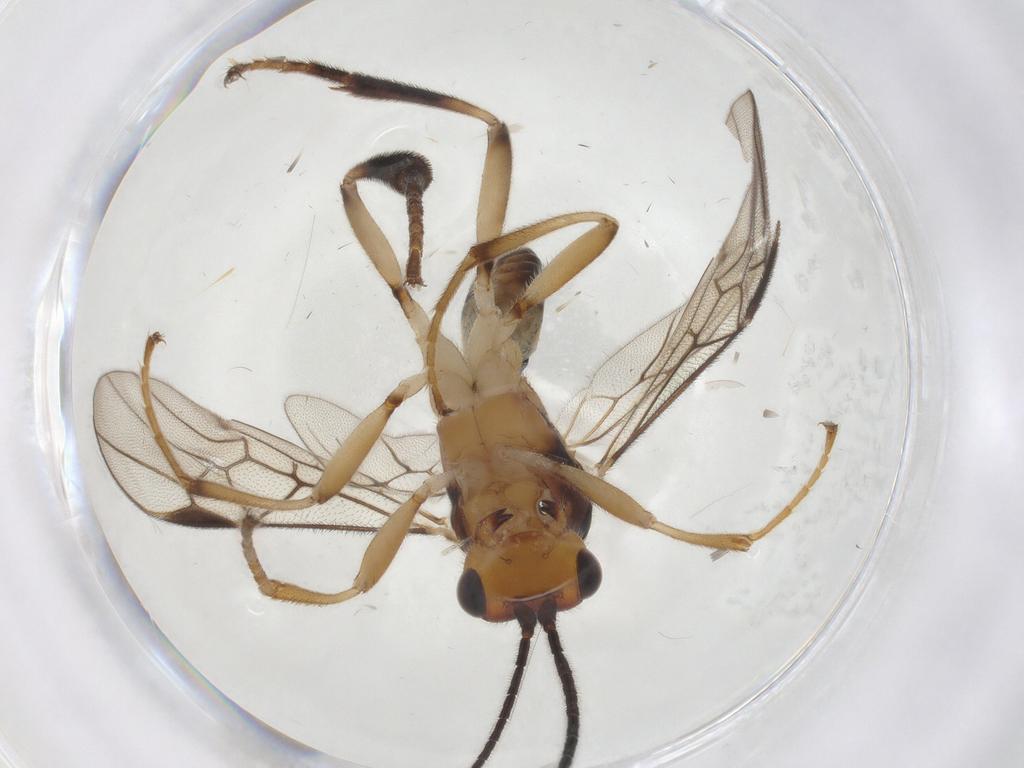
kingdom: Animalia
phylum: Arthropoda
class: Insecta
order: Hymenoptera
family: Braconidae
